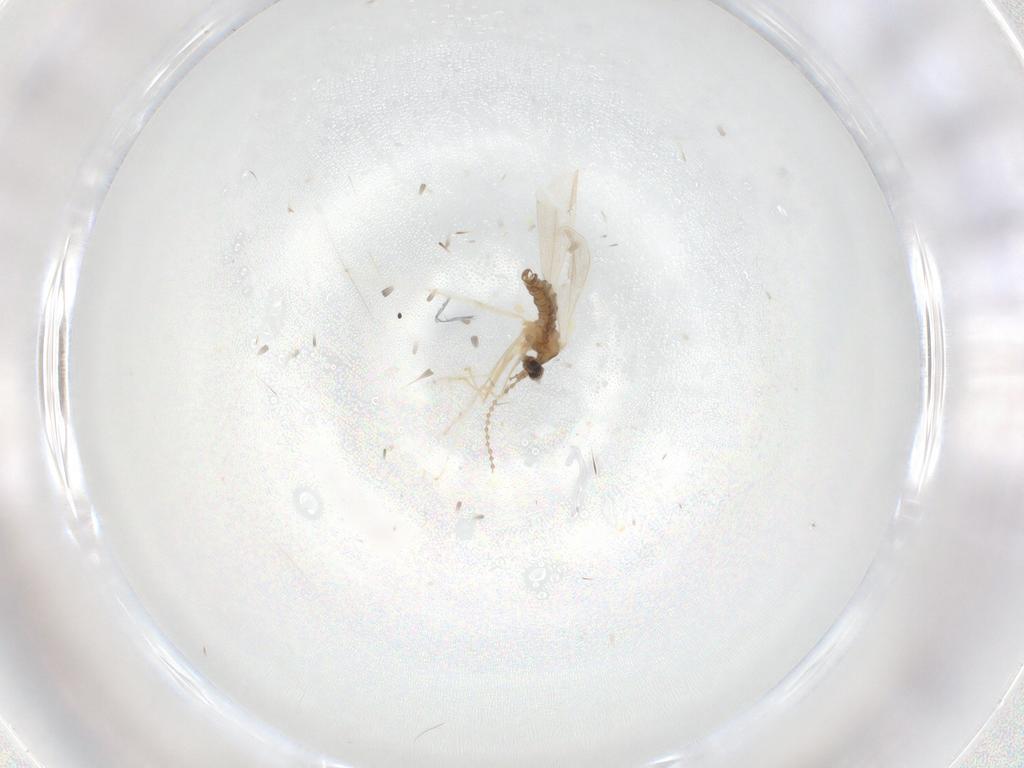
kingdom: Animalia
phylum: Arthropoda
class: Insecta
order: Diptera
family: Cecidomyiidae
